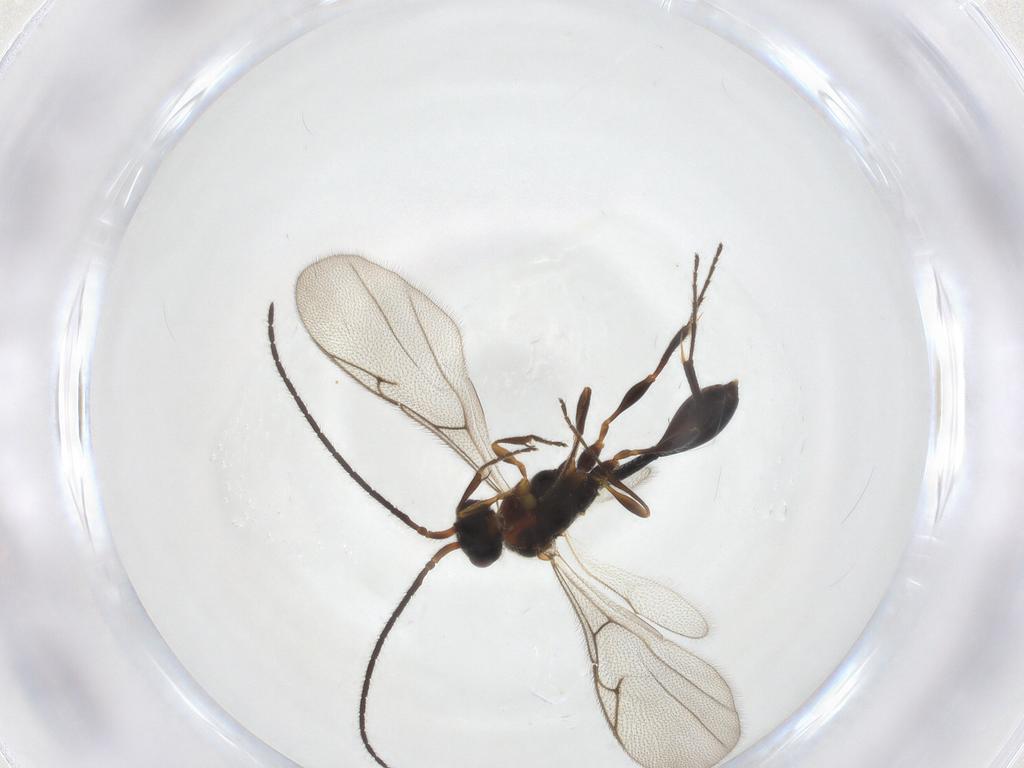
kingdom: Animalia
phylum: Arthropoda
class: Insecta
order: Hymenoptera
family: Diapriidae
